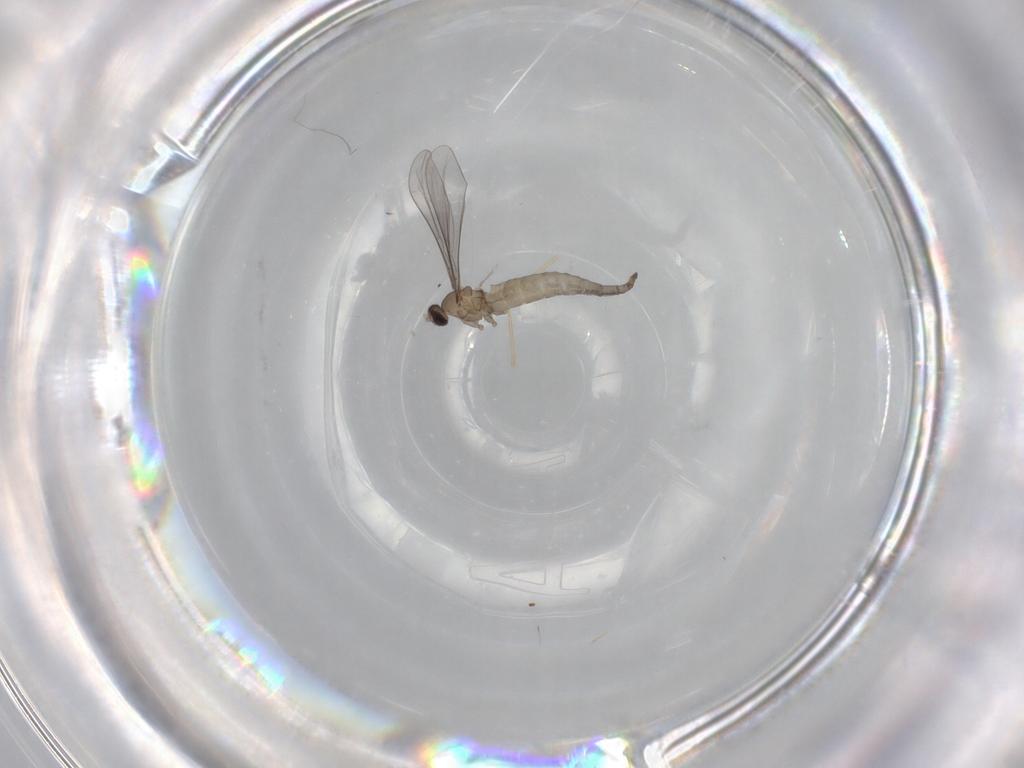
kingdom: Animalia
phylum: Arthropoda
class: Insecta
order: Diptera
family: Cecidomyiidae
